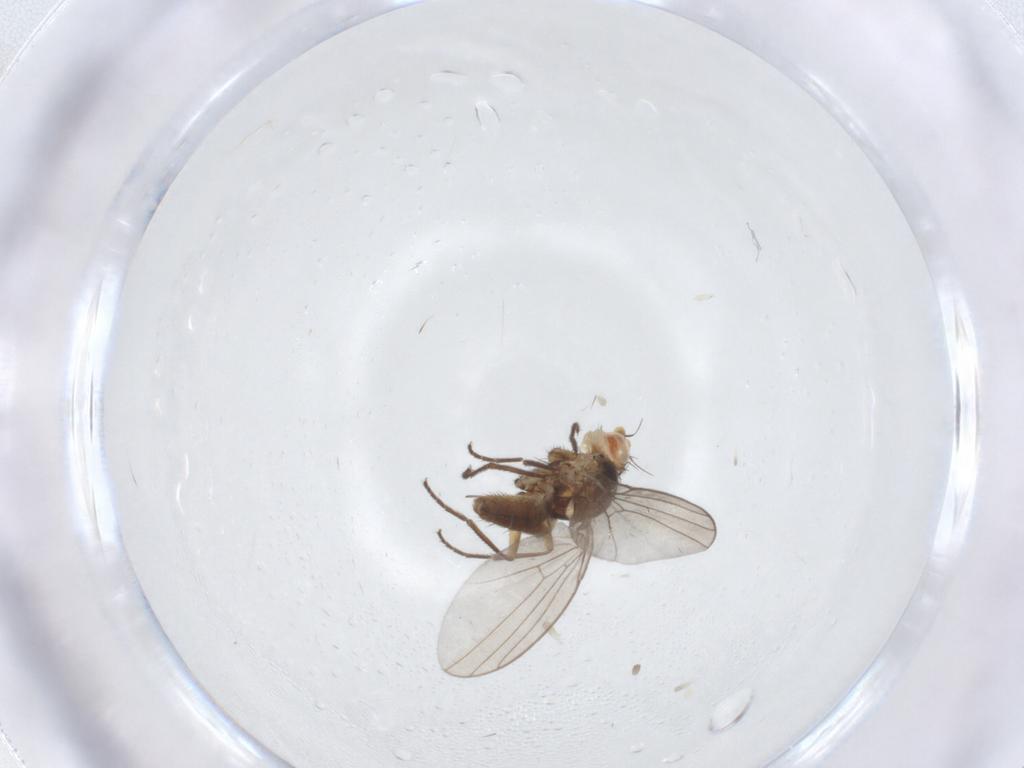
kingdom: Animalia
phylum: Arthropoda
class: Insecta
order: Diptera
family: Agromyzidae
